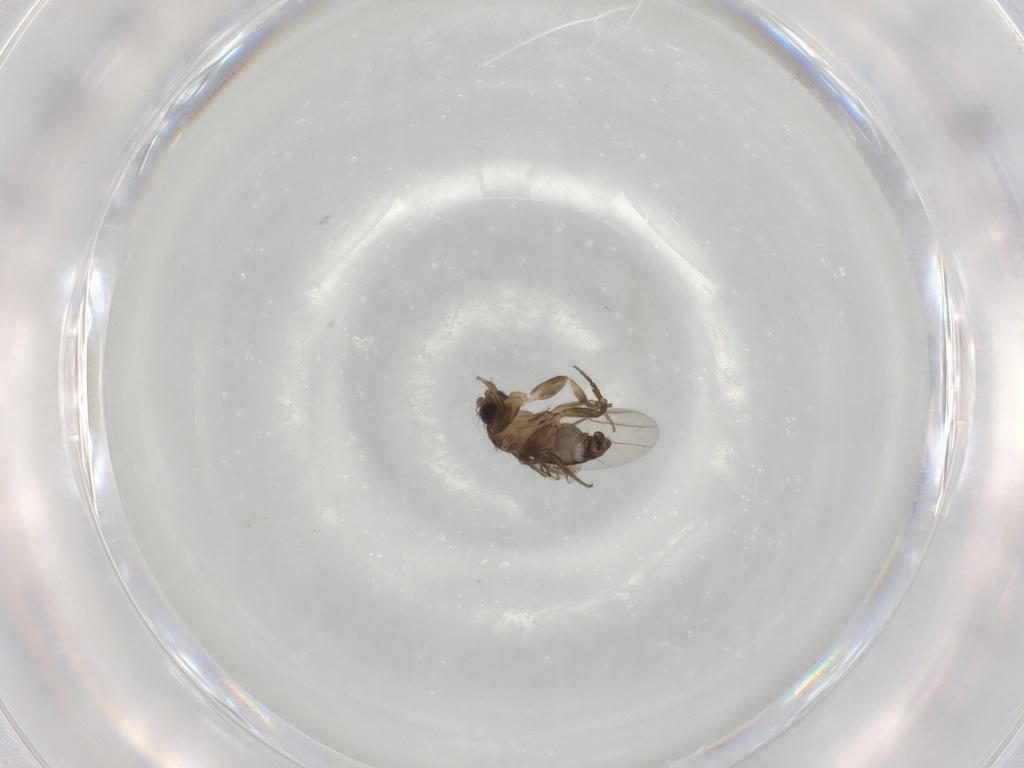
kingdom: Animalia
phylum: Arthropoda
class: Insecta
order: Diptera
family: Phoridae
